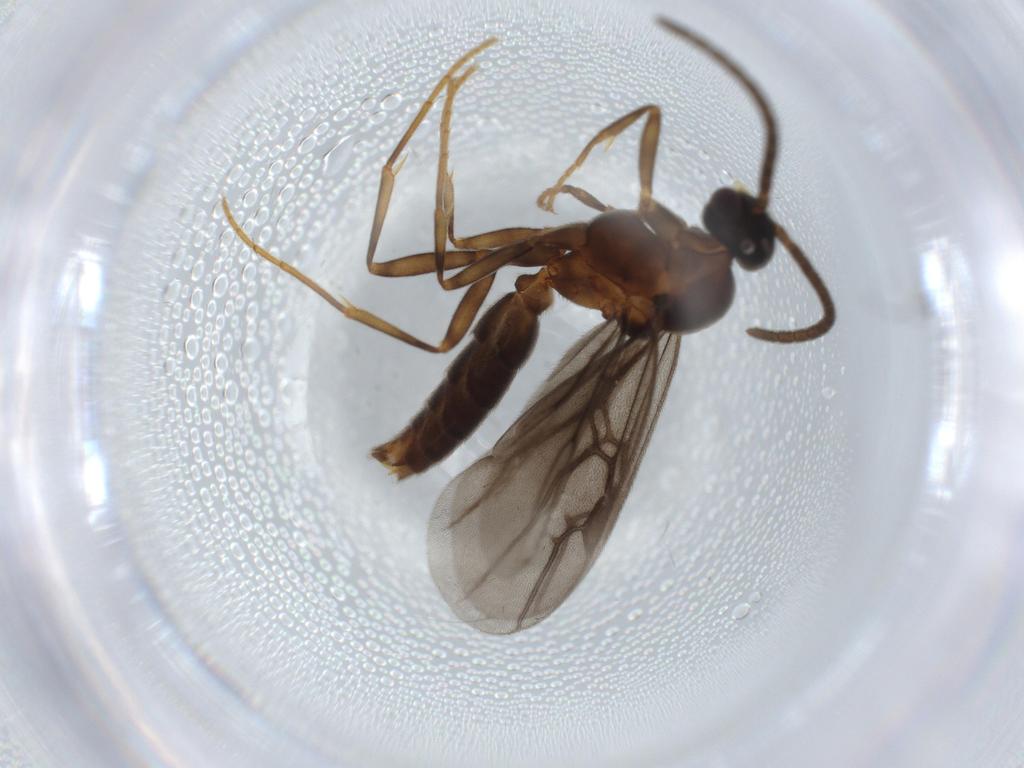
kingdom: Animalia
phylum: Arthropoda
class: Insecta
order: Hymenoptera
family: Formicidae
